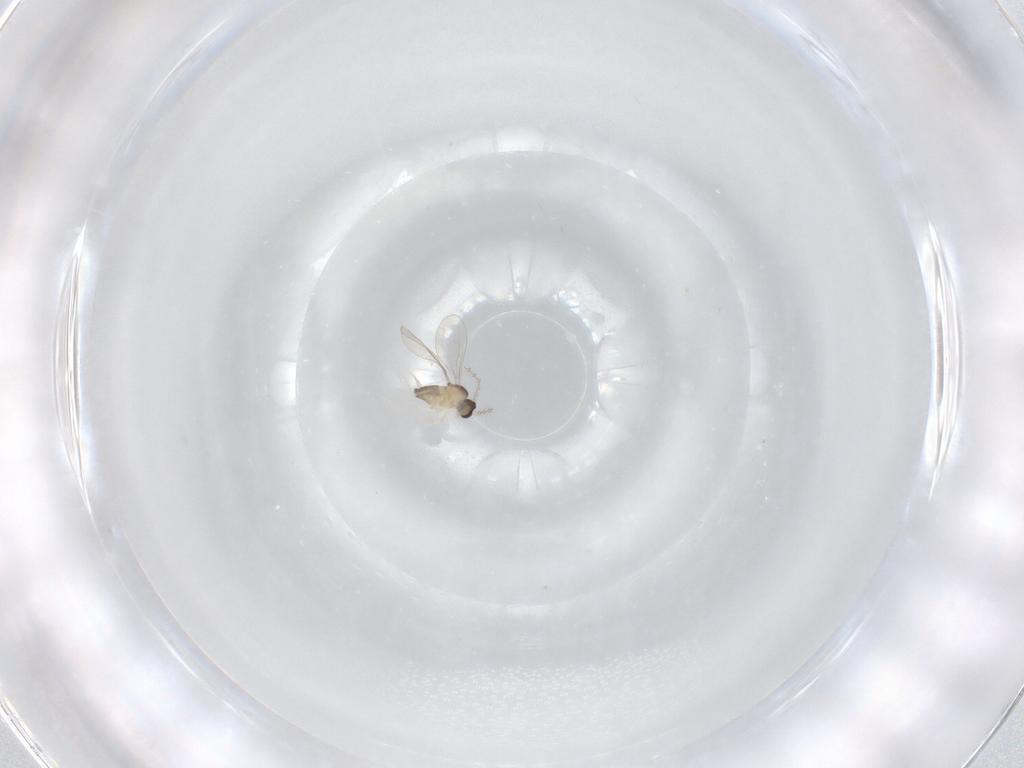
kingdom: Animalia
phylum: Arthropoda
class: Insecta
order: Diptera
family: Cecidomyiidae
